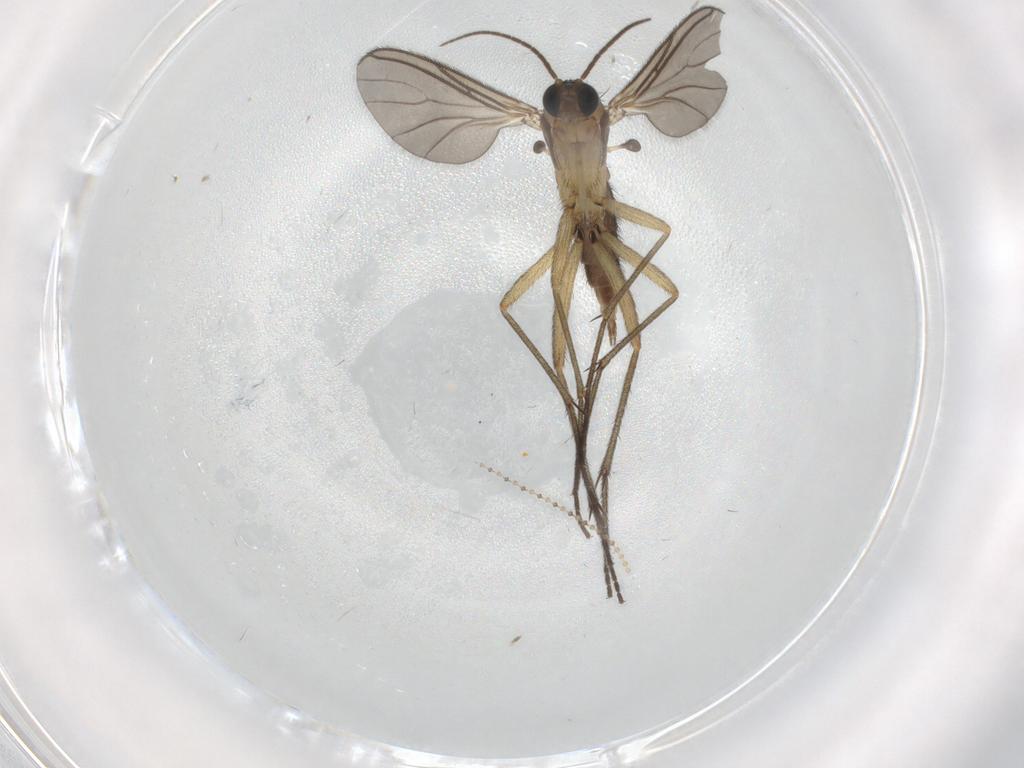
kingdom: Animalia
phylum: Arthropoda
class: Insecta
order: Diptera
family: Sciaridae
